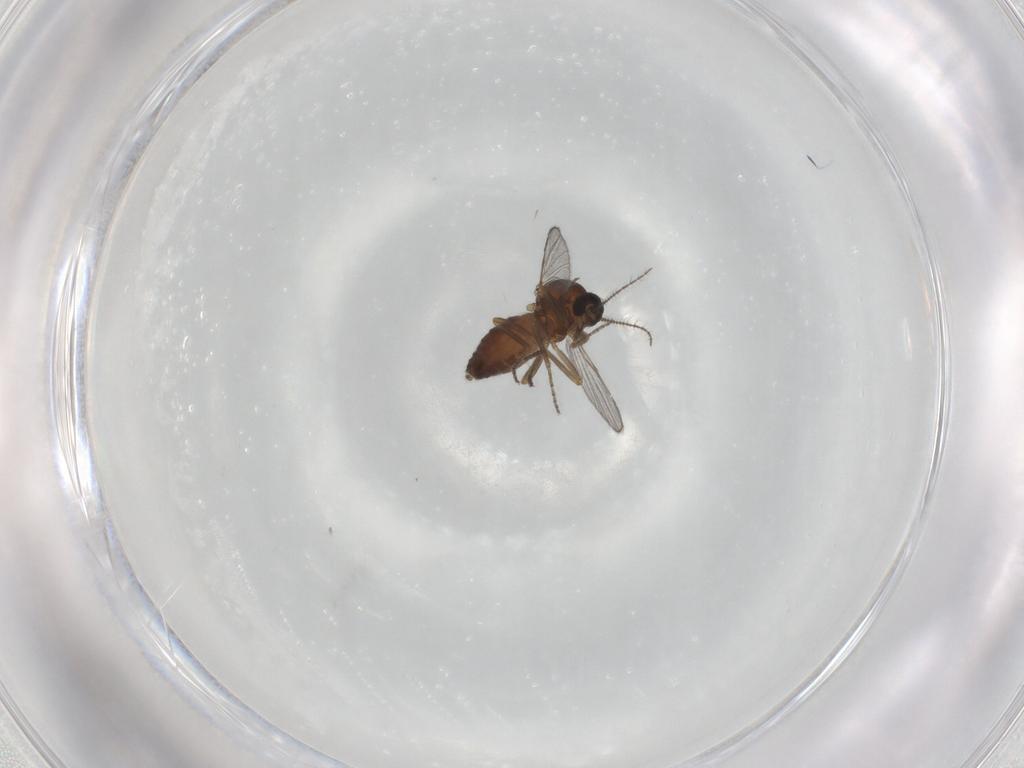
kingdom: Animalia
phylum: Arthropoda
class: Insecta
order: Diptera
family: Ceratopogonidae
